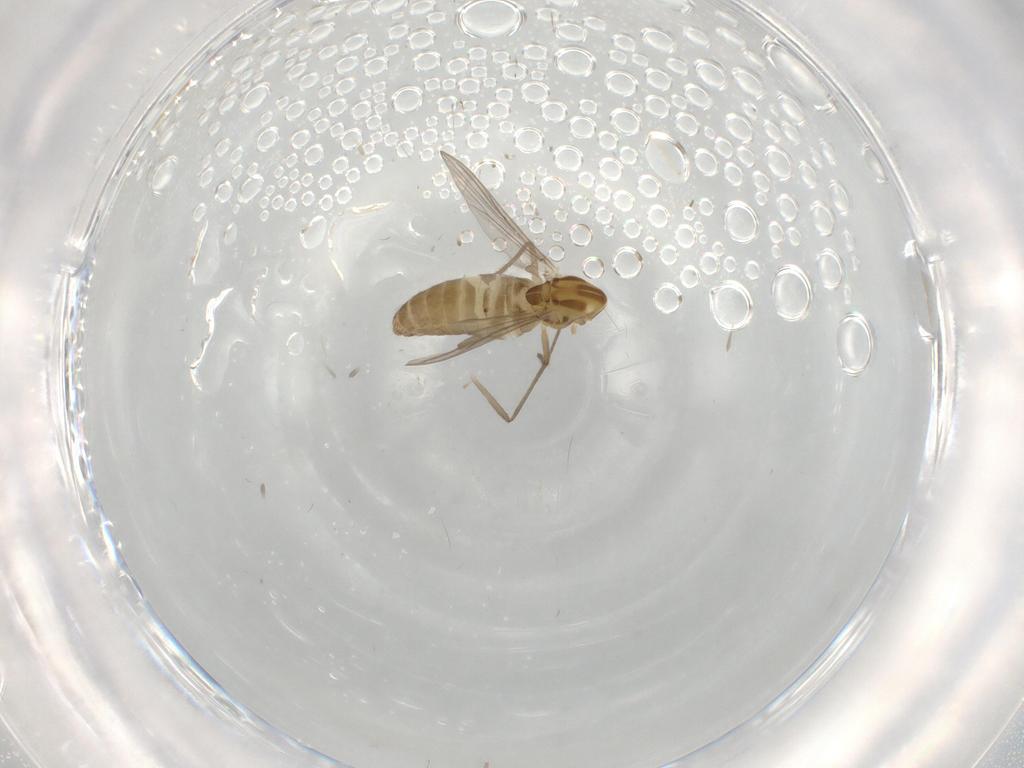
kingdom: Animalia
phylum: Arthropoda
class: Insecta
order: Diptera
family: Chironomidae
